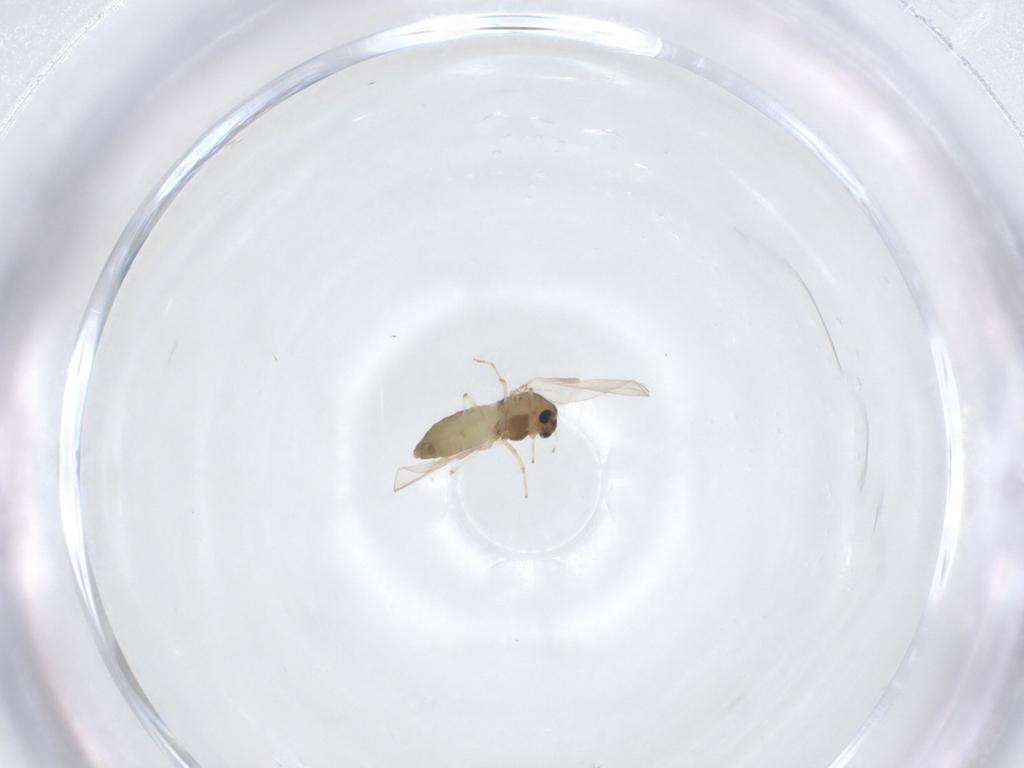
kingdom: Animalia
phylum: Arthropoda
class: Insecta
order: Diptera
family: Chironomidae
